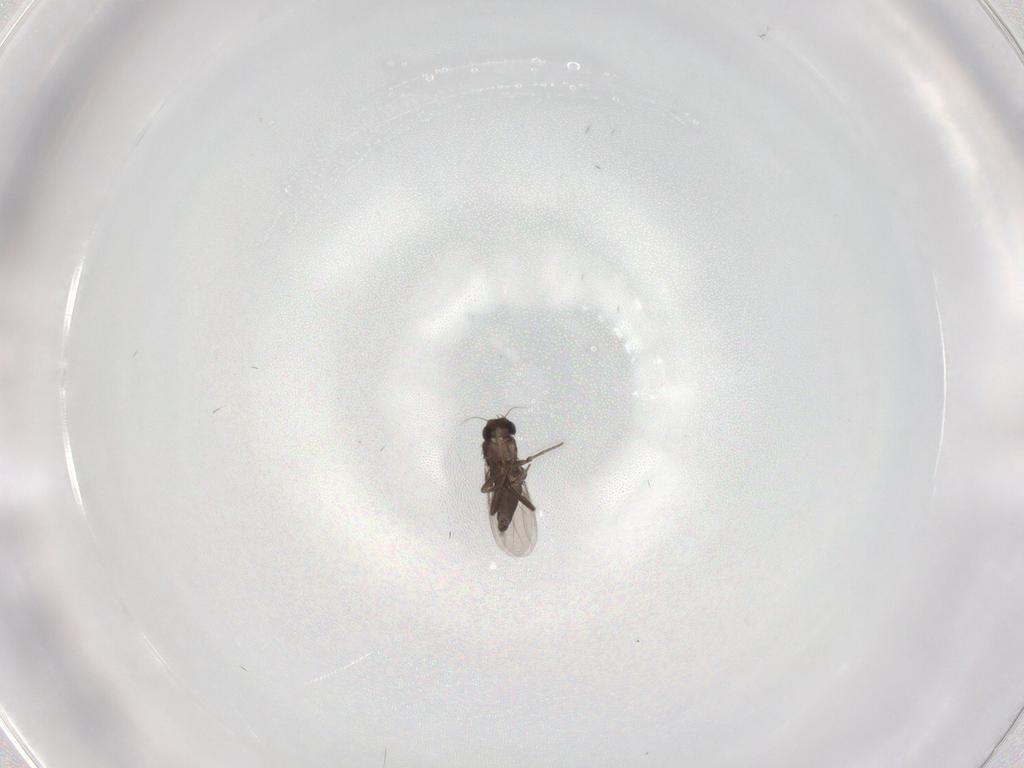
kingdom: Animalia
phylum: Arthropoda
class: Insecta
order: Diptera
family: Phoridae
